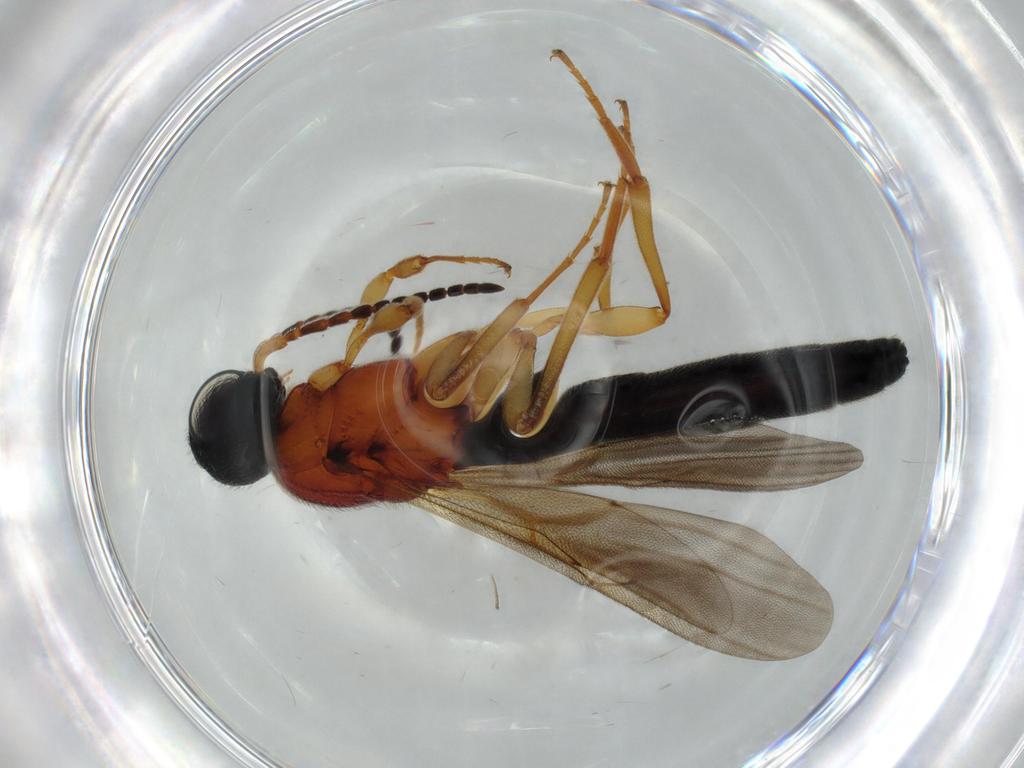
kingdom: Animalia
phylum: Arthropoda
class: Insecta
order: Hymenoptera
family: Scelionidae
